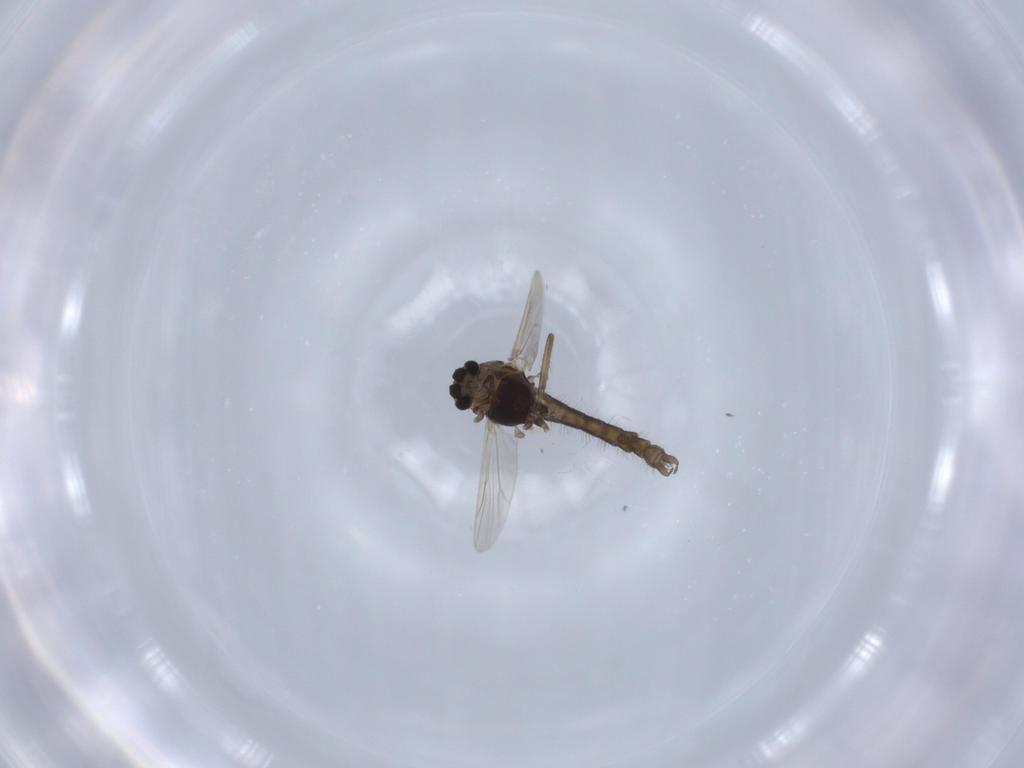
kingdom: Animalia
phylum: Arthropoda
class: Insecta
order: Diptera
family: Chironomidae
